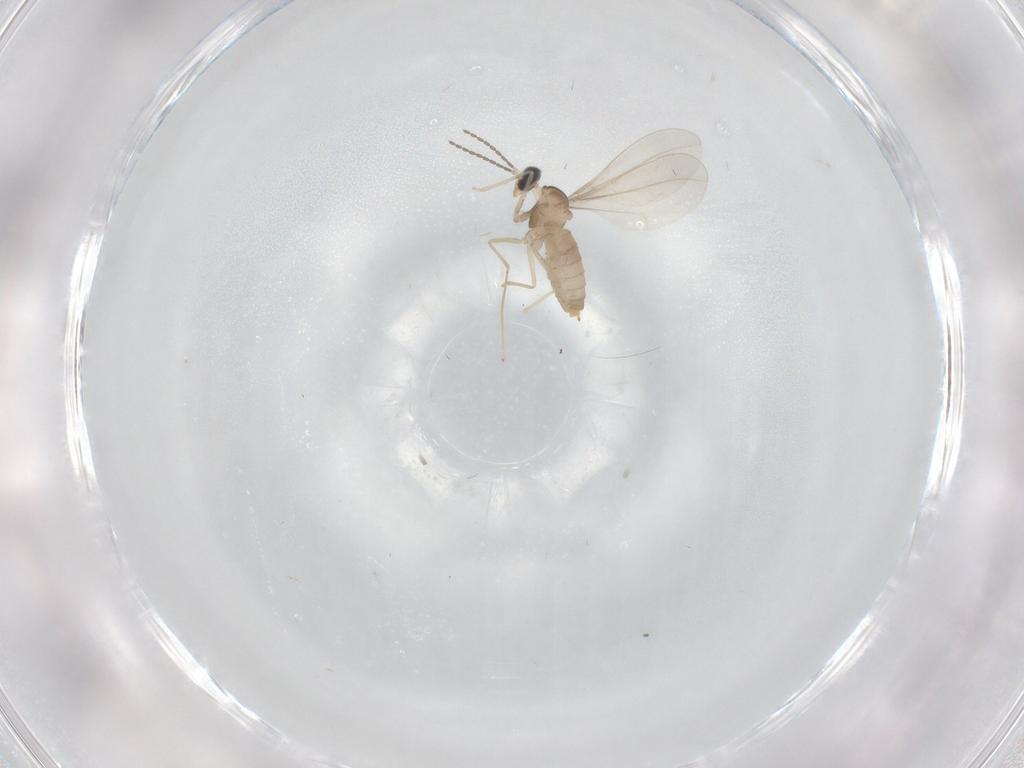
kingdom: Animalia
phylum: Arthropoda
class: Insecta
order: Diptera
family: Cecidomyiidae
